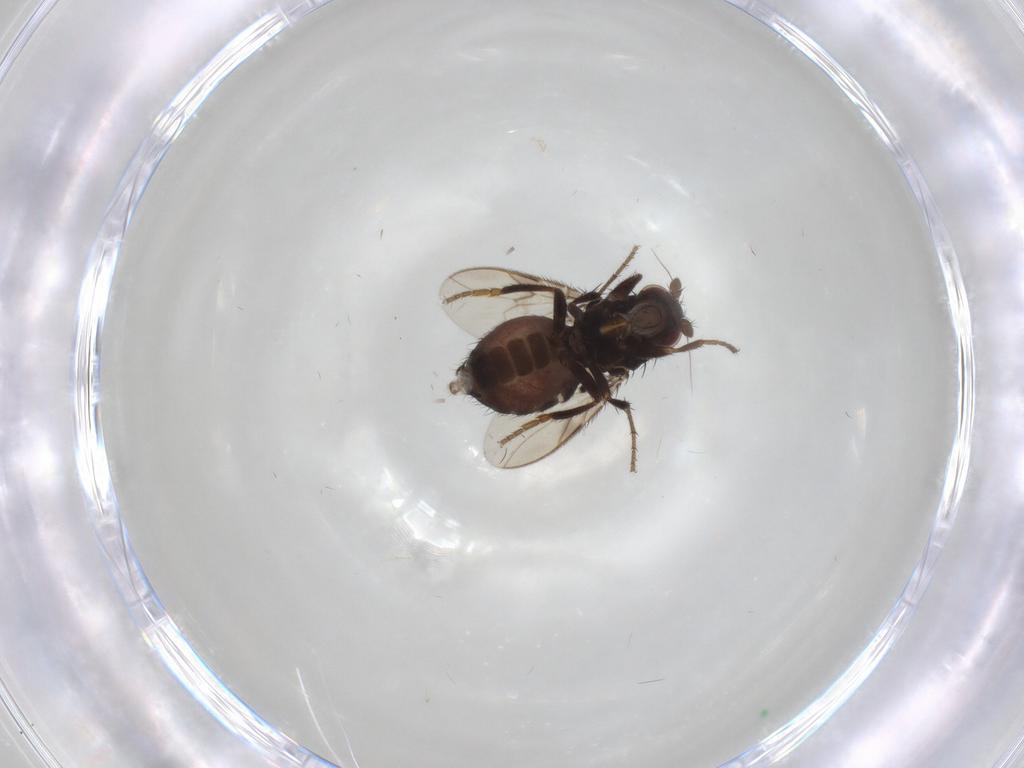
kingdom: Animalia
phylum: Arthropoda
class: Insecta
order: Diptera
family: Sphaeroceridae
